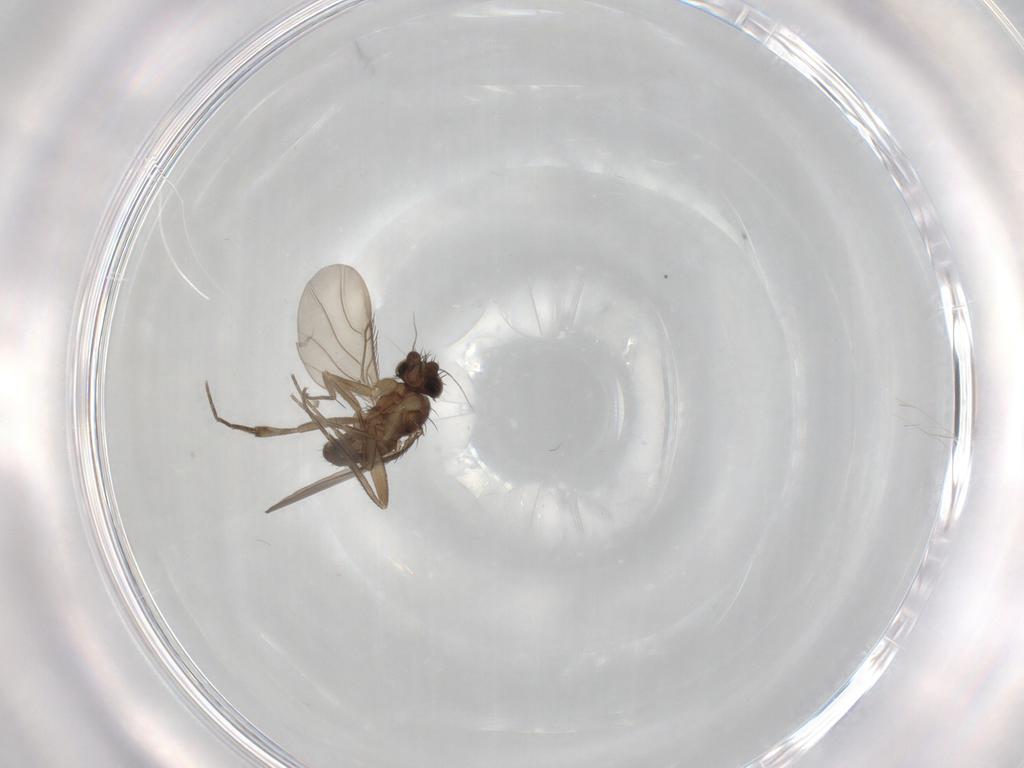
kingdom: Animalia
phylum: Arthropoda
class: Insecta
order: Diptera
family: Phoridae
